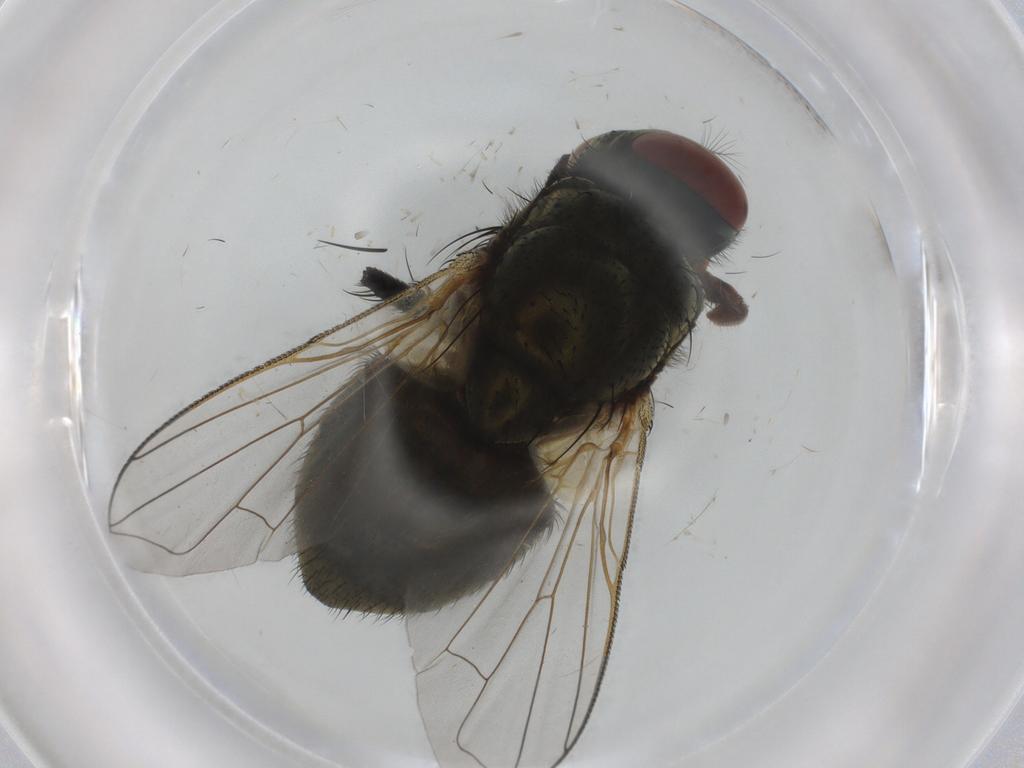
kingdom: Animalia
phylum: Arthropoda
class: Insecta
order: Diptera
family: Muscidae
